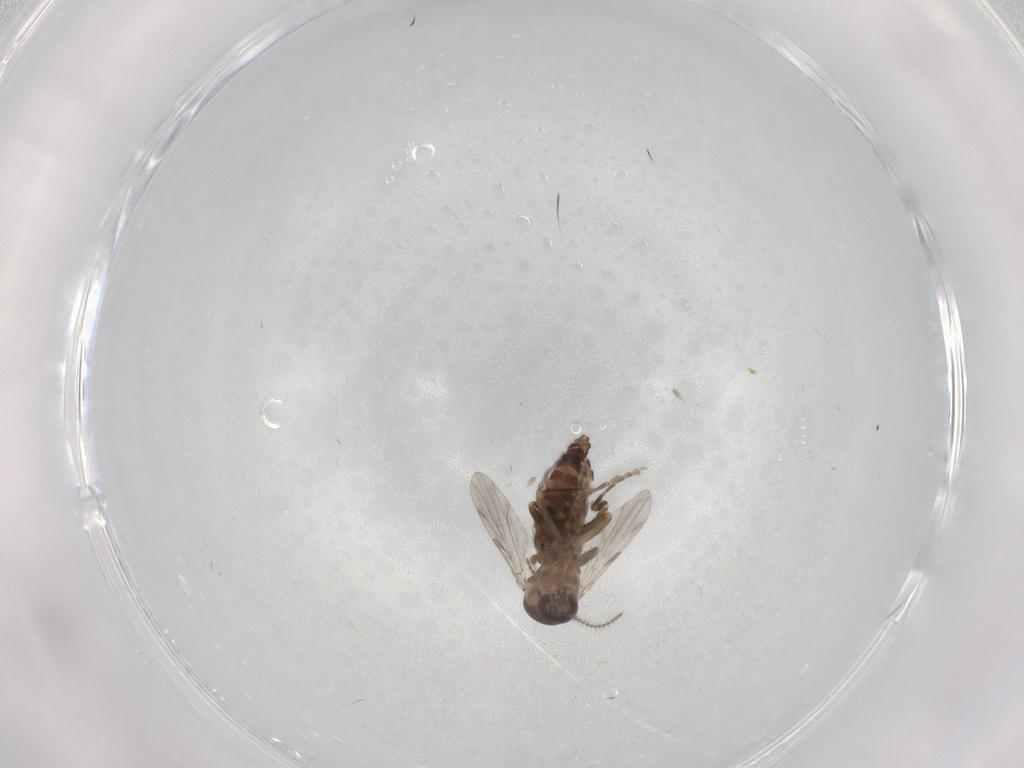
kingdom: Animalia
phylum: Arthropoda
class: Insecta
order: Diptera
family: Ceratopogonidae
